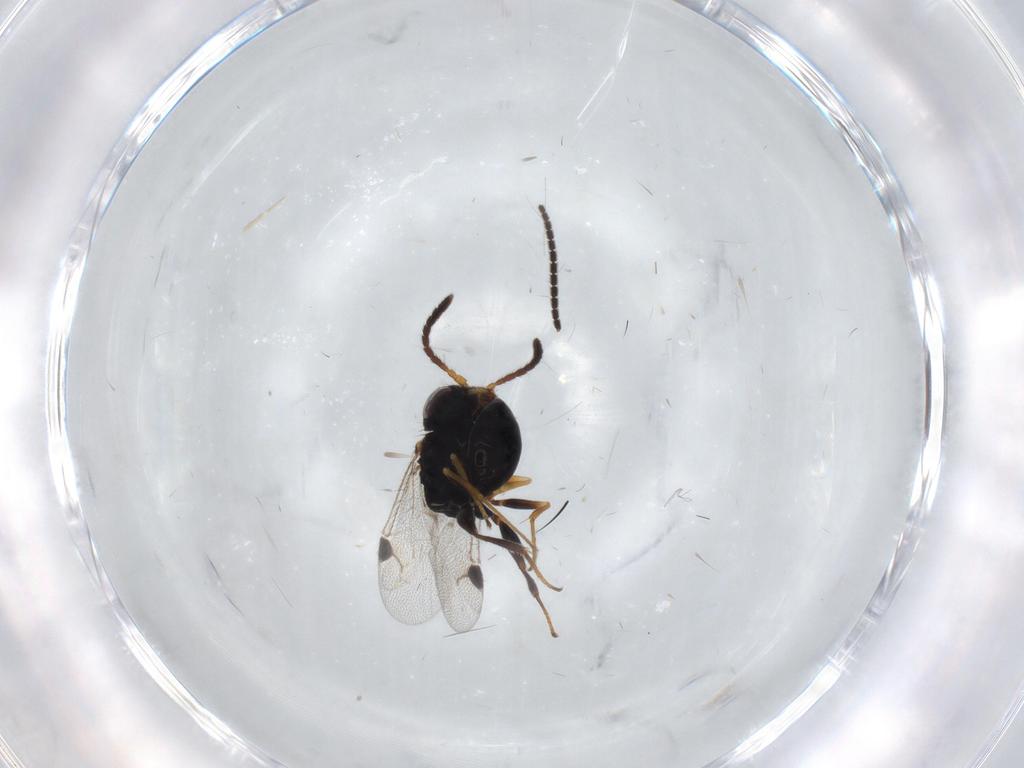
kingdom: Animalia
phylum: Arthropoda
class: Insecta
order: Hymenoptera
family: Dryinidae
